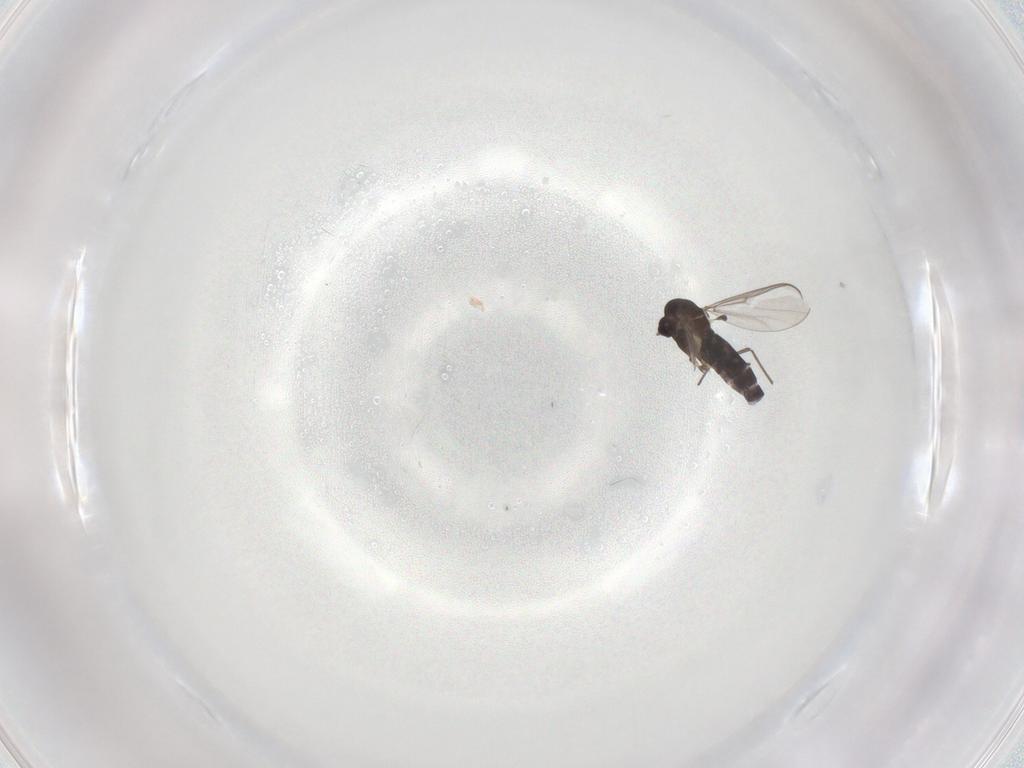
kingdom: Animalia
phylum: Arthropoda
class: Insecta
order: Diptera
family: Chironomidae
